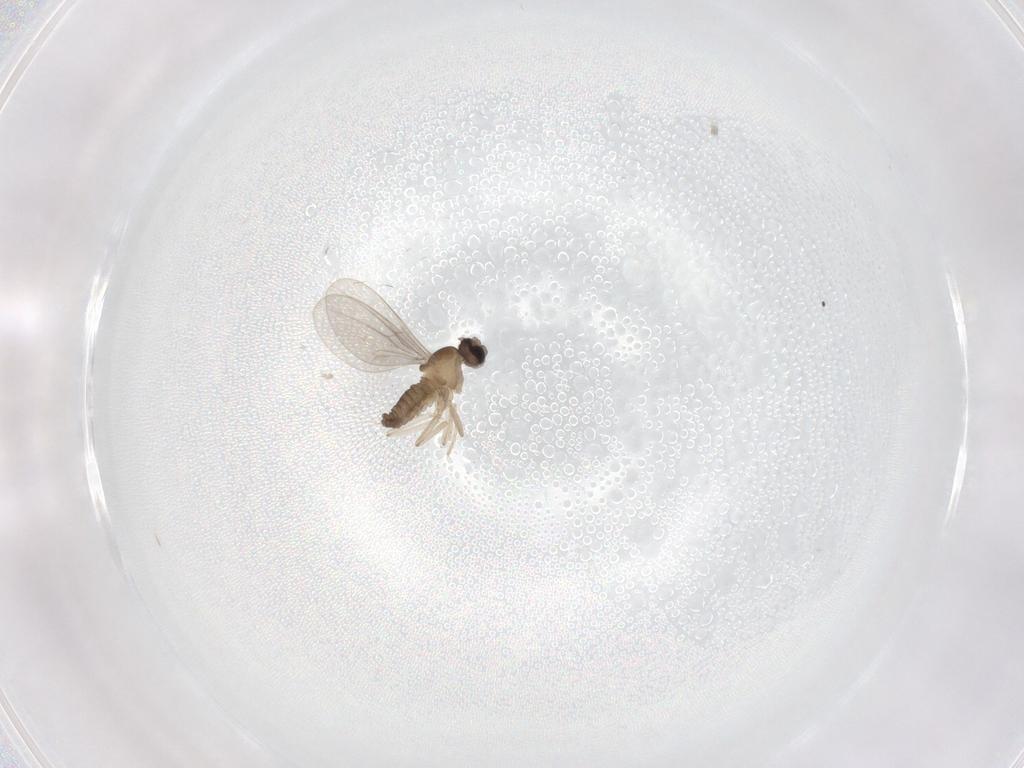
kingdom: Animalia
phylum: Arthropoda
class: Insecta
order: Diptera
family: Cecidomyiidae
